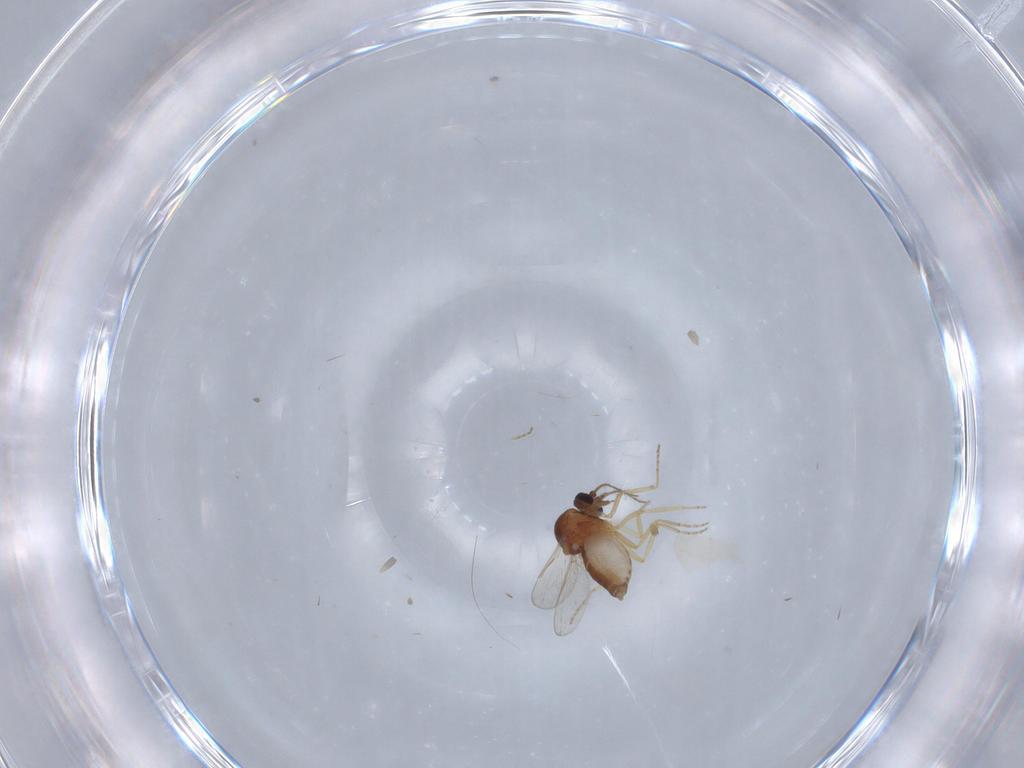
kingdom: Animalia
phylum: Arthropoda
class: Insecta
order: Diptera
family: Ceratopogonidae
